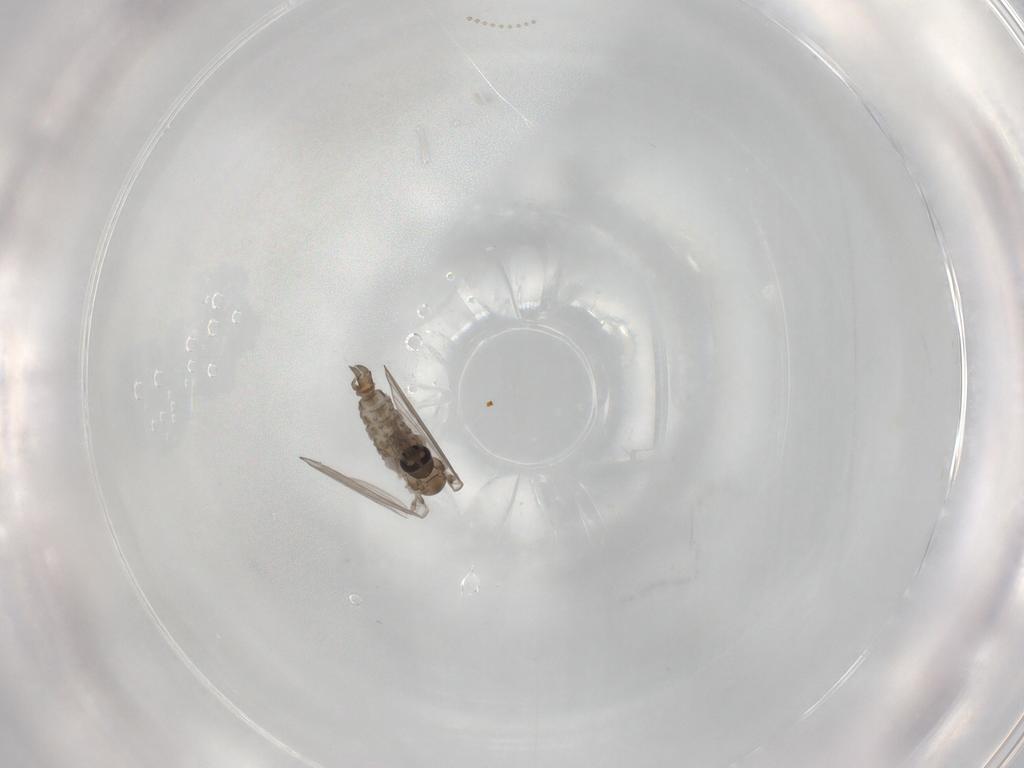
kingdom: Animalia
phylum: Arthropoda
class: Insecta
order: Diptera
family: Psychodidae
